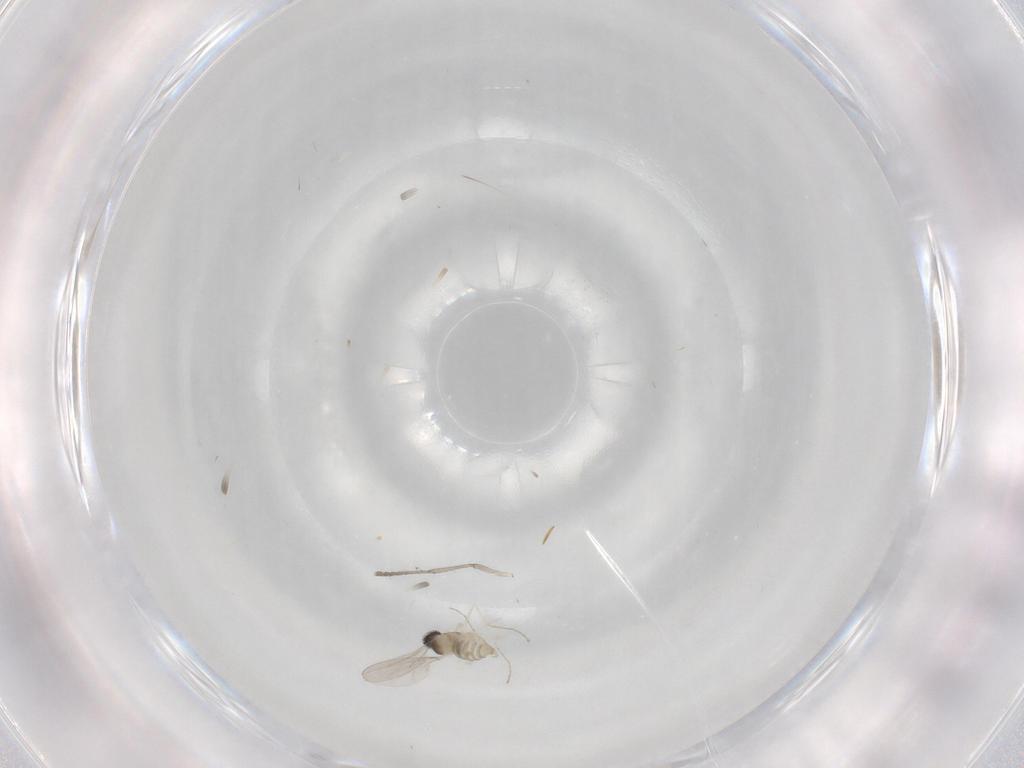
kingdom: Animalia
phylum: Arthropoda
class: Insecta
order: Diptera
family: Cecidomyiidae
